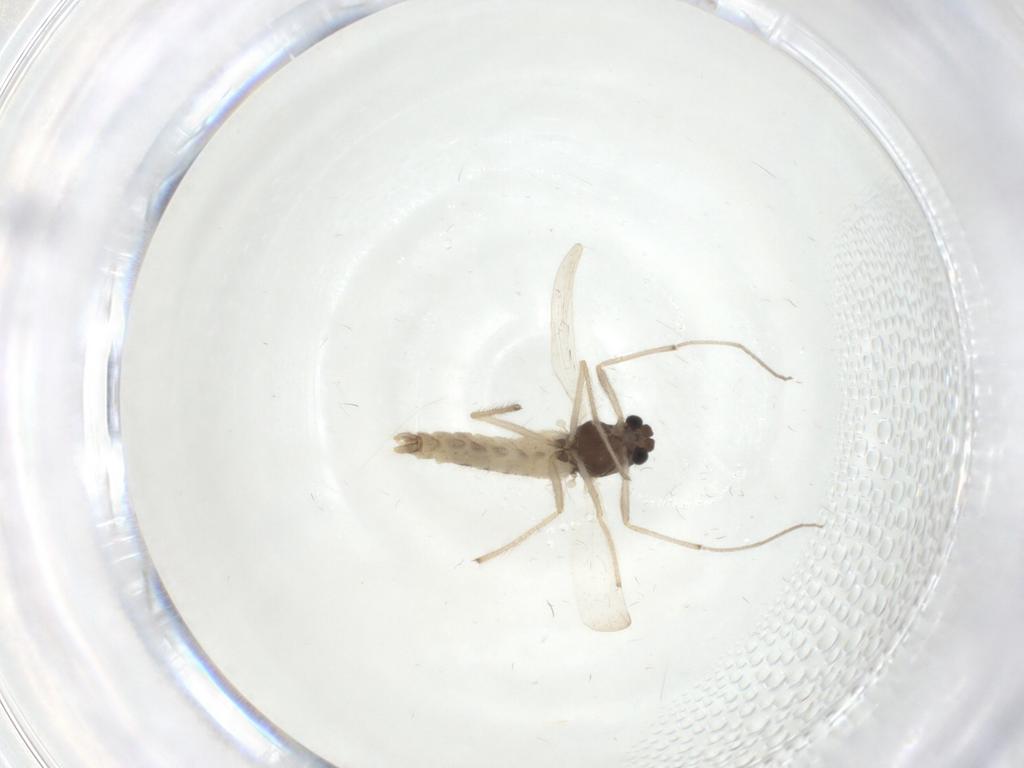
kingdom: Animalia
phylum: Arthropoda
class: Insecta
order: Diptera
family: Chironomidae
